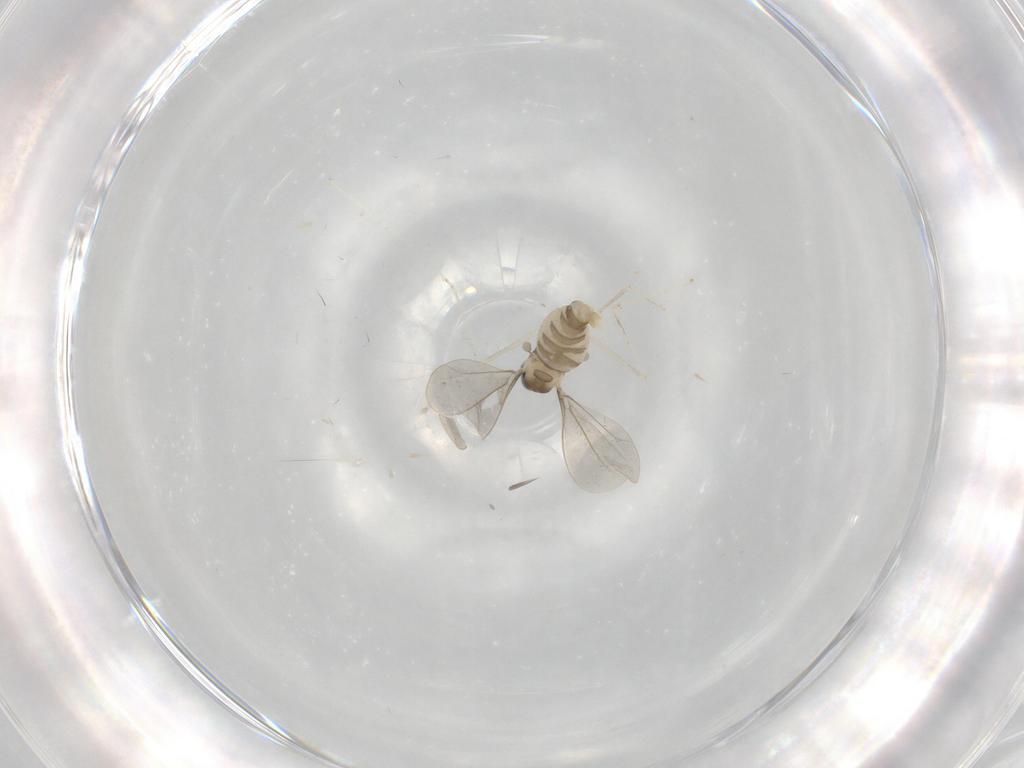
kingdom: Animalia
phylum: Arthropoda
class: Insecta
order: Diptera
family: Cecidomyiidae
